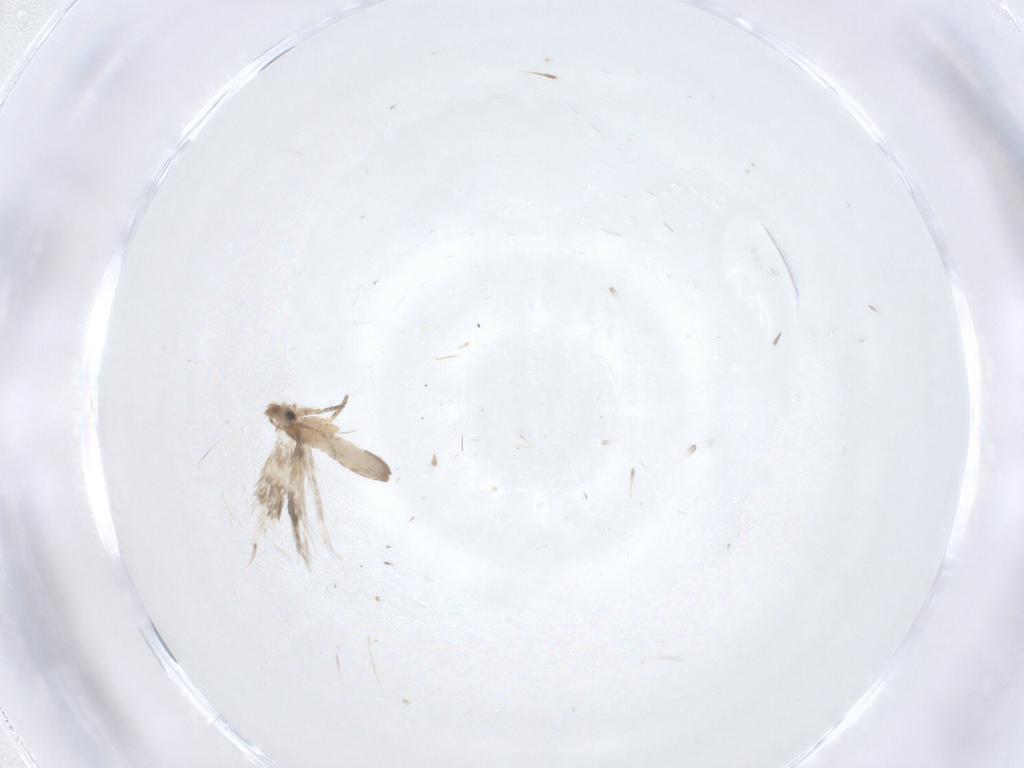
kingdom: Animalia
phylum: Arthropoda
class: Insecta
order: Lepidoptera
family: Nepticulidae
